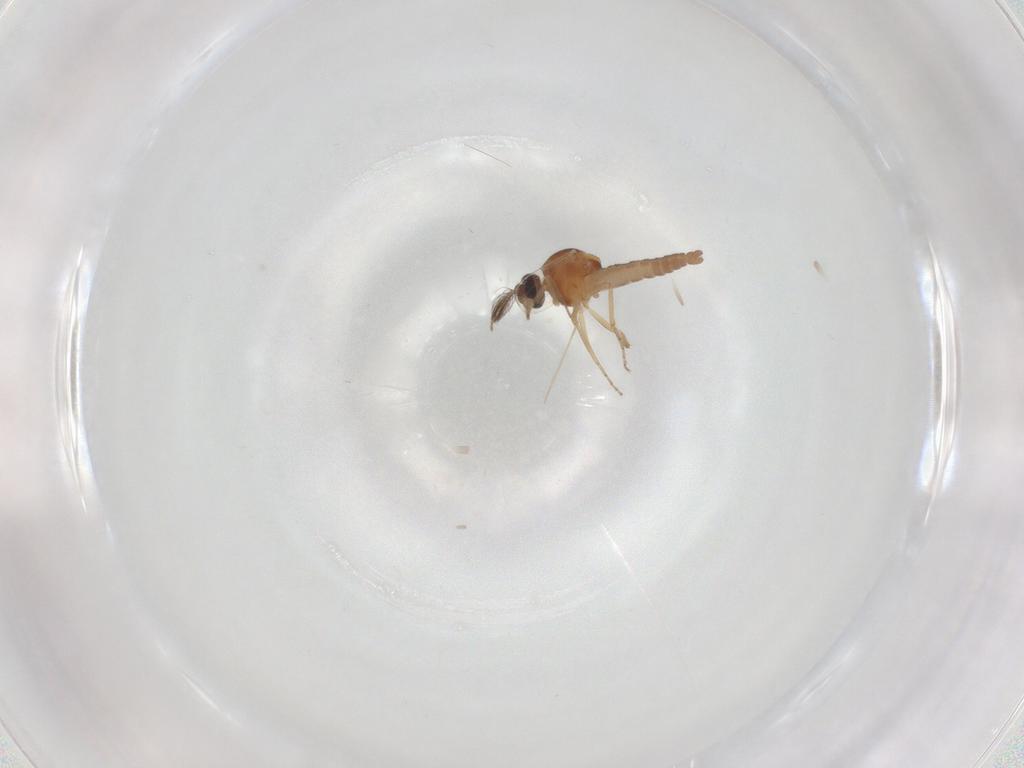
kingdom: Animalia
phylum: Arthropoda
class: Insecta
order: Diptera
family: Ceratopogonidae
